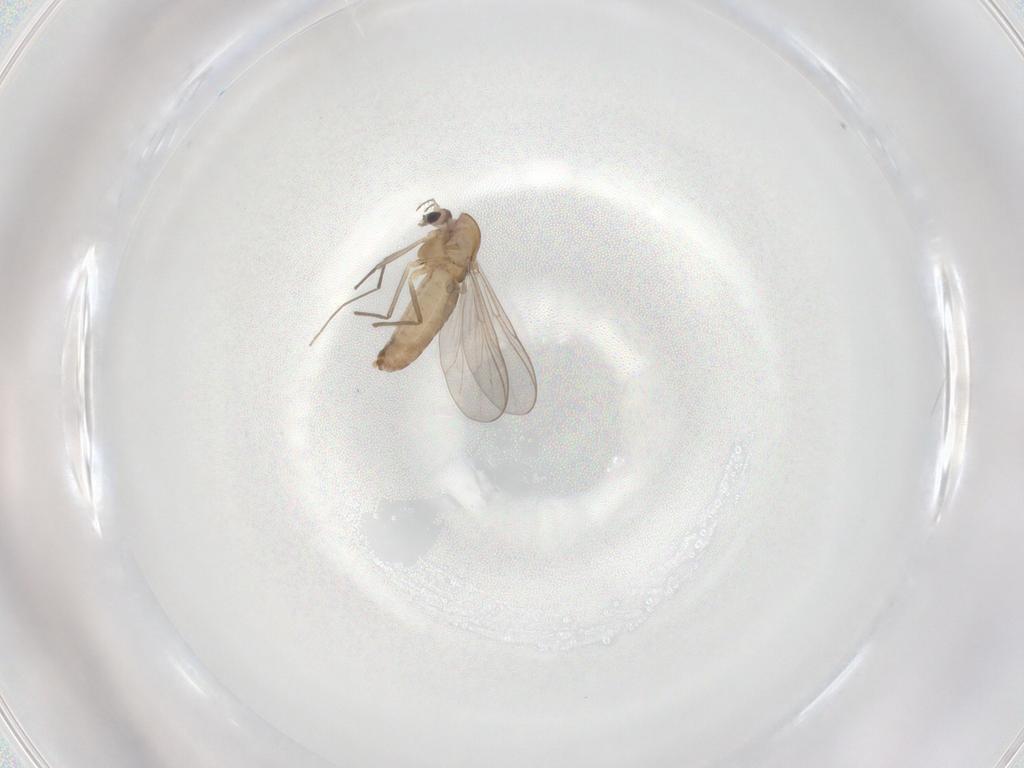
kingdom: Animalia
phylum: Arthropoda
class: Insecta
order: Diptera
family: Chironomidae
